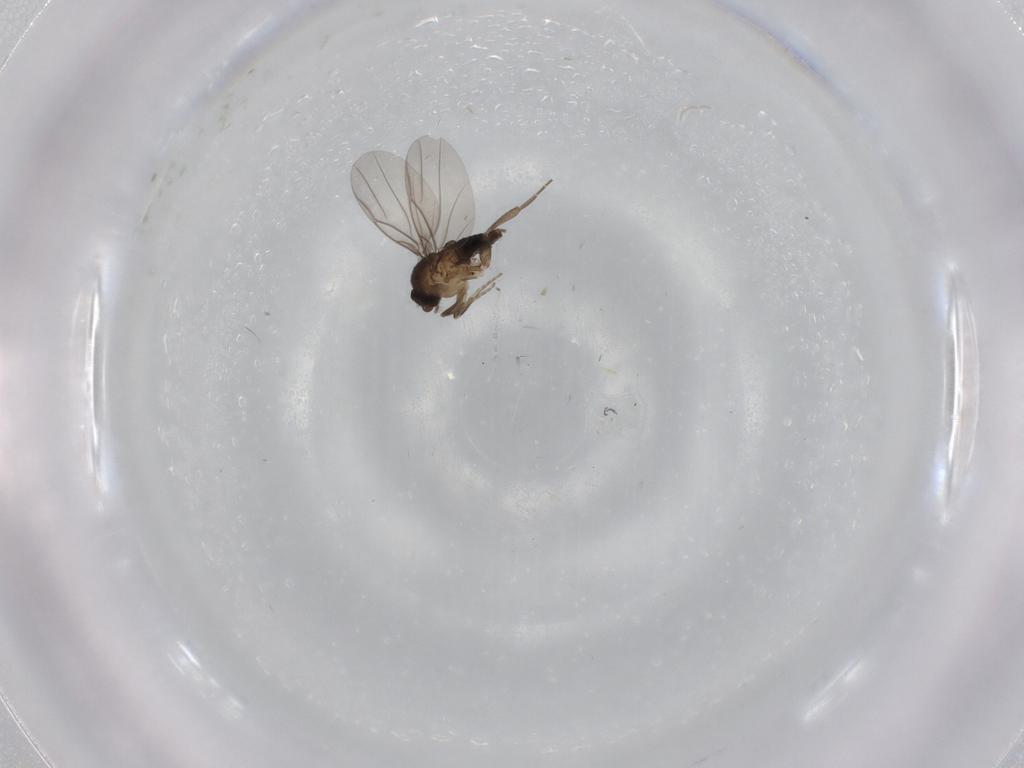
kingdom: Animalia
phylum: Arthropoda
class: Insecta
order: Diptera
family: Phoridae
